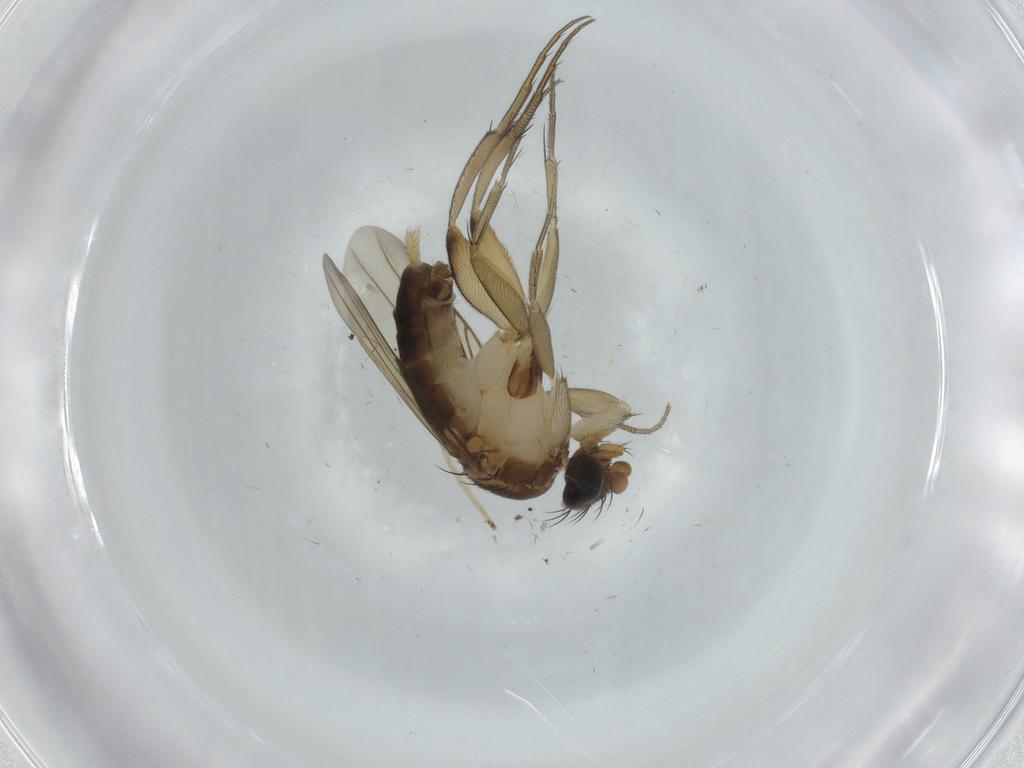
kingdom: Animalia
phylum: Arthropoda
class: Insecta
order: Diptera
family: Phoridae
